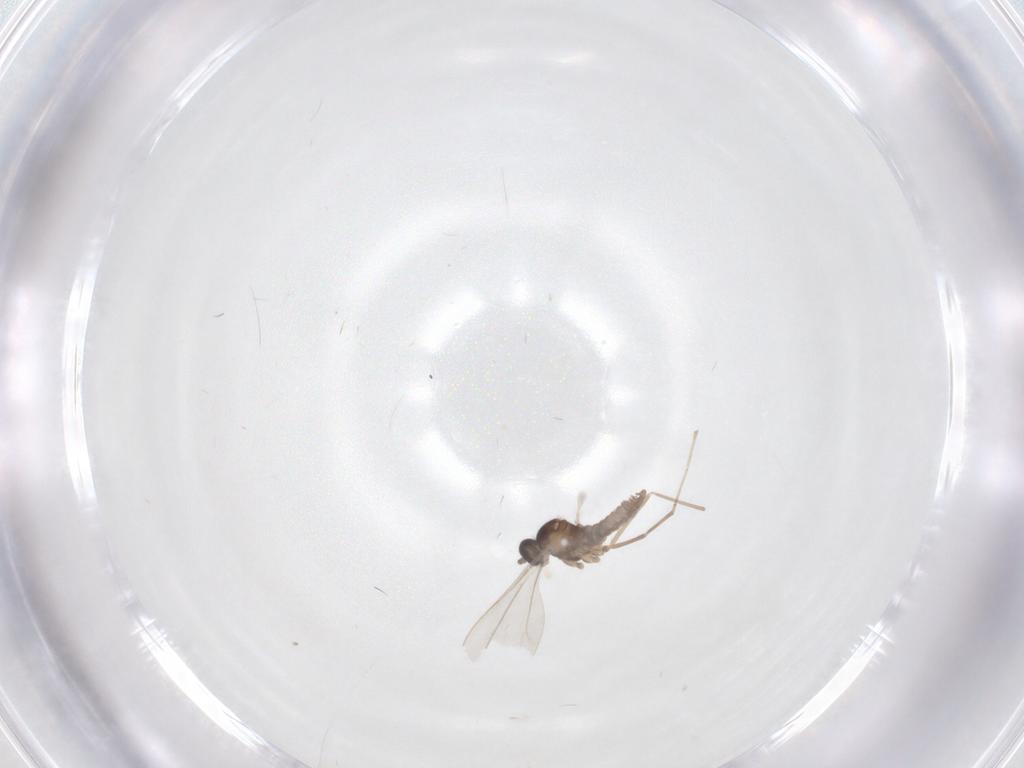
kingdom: Animalia
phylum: Arthropoda
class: Insecta
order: Diptera
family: Cecidomyiidae
